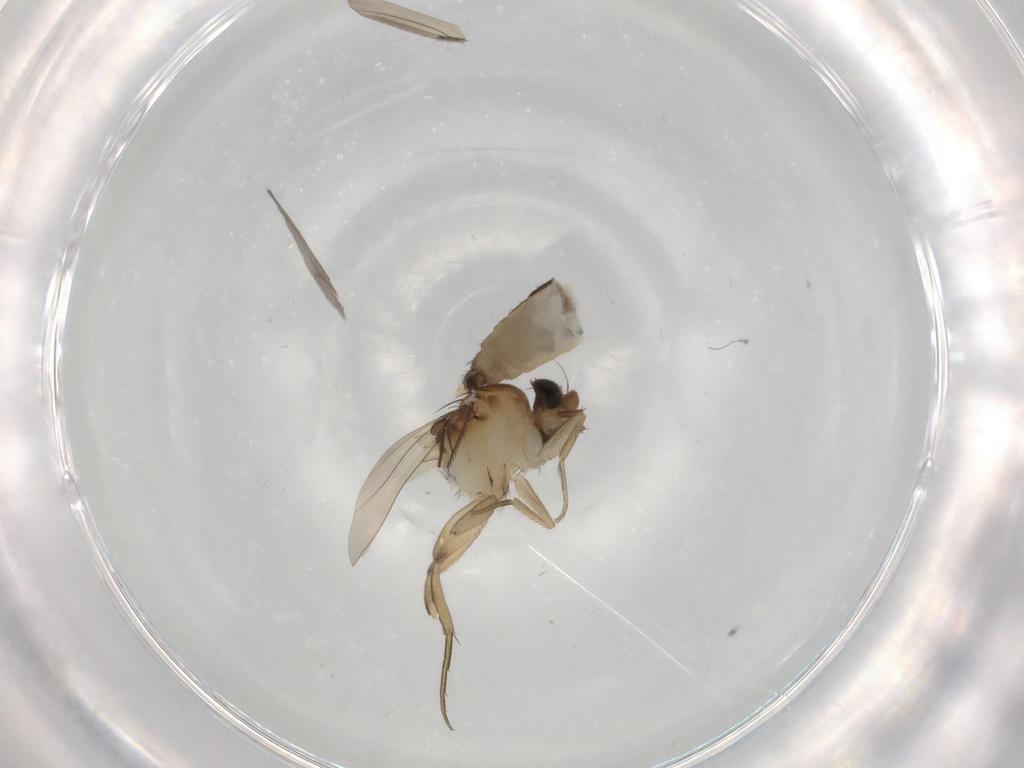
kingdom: Animalia
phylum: Arthropoda
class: Insecta
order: Diptera
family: Phoridae
